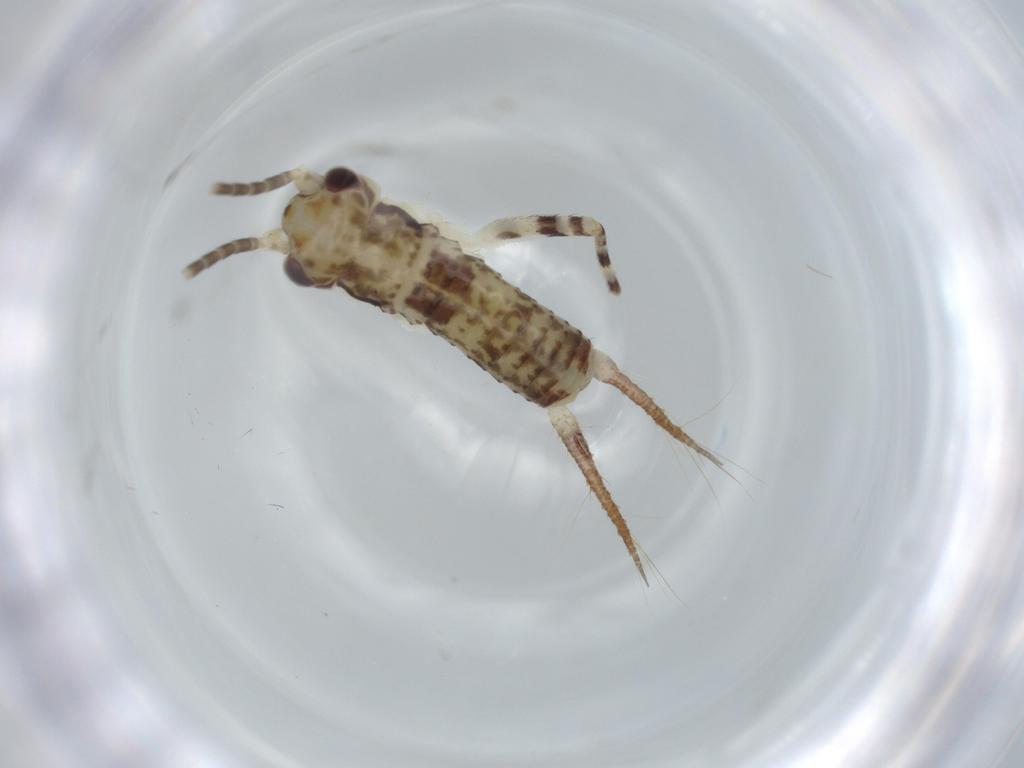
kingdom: Animalia
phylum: Arthropoda
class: Insecta
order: Orthoptera
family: Gryllidae
